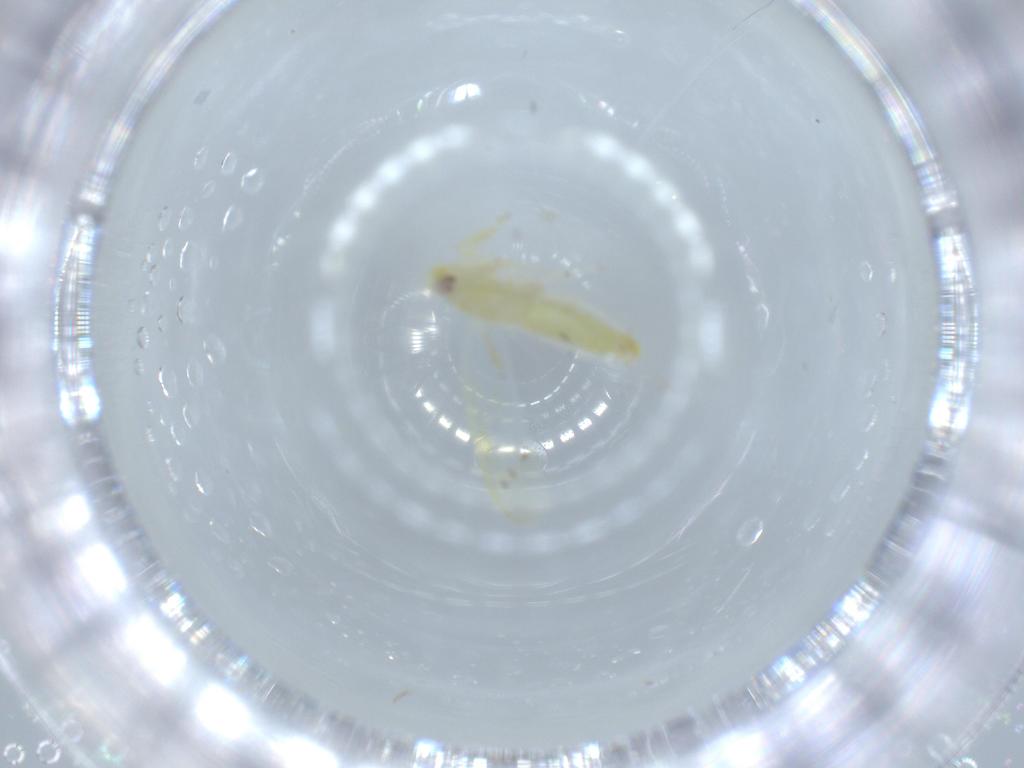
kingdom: Animalia
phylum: Arthropoda
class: Insecta
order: Hemiptera
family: Cicadellidae
